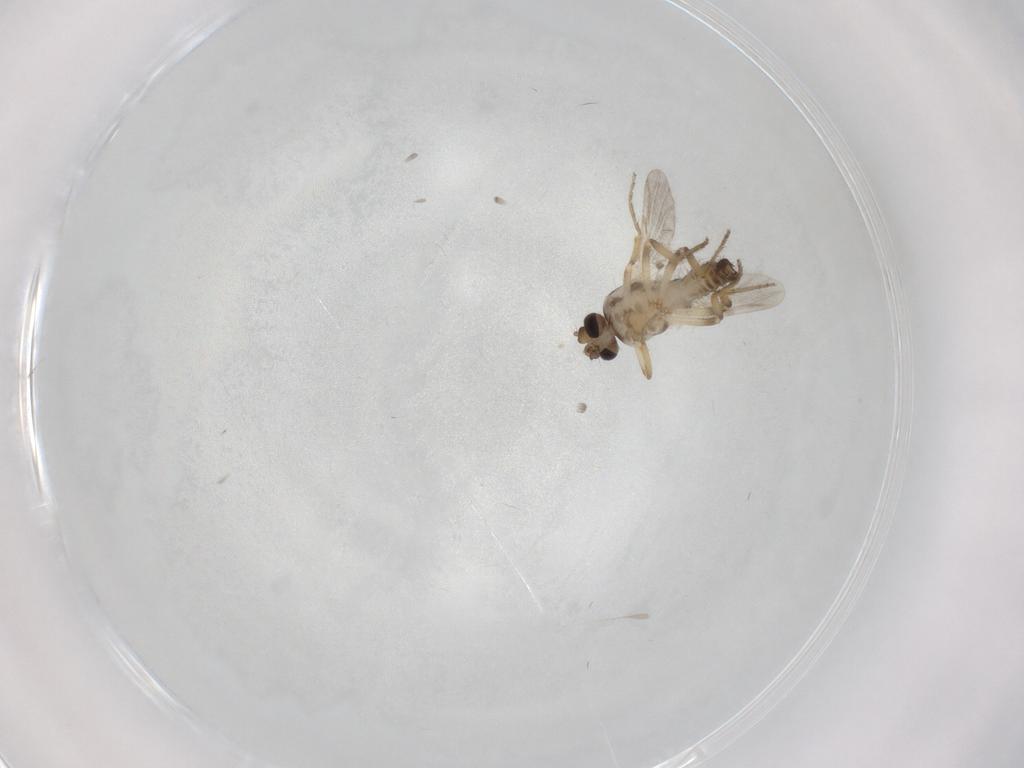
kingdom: Animalia
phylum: Arthropoda
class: Insecta
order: Diptera
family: Ceratopogonidae
